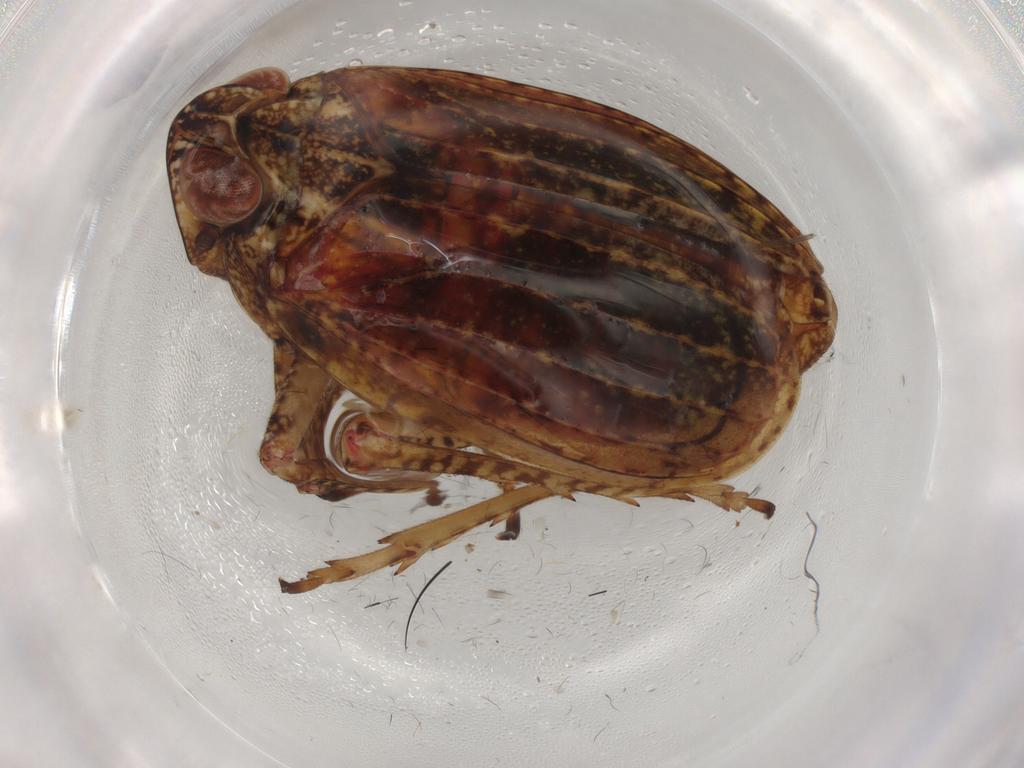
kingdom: Animalia
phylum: Arthropoda
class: Insecta
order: Hemiptera
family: Tropiduchidae
